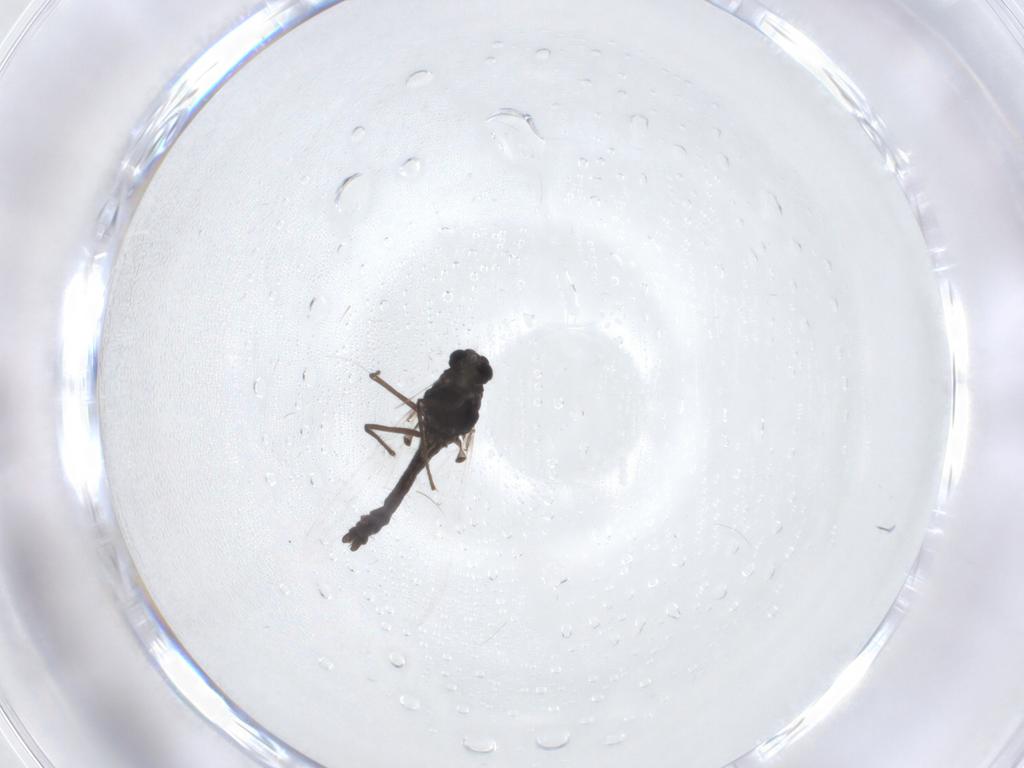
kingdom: Animalia
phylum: Arthropoda
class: Insecta
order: Diptera
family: Chironomidae
